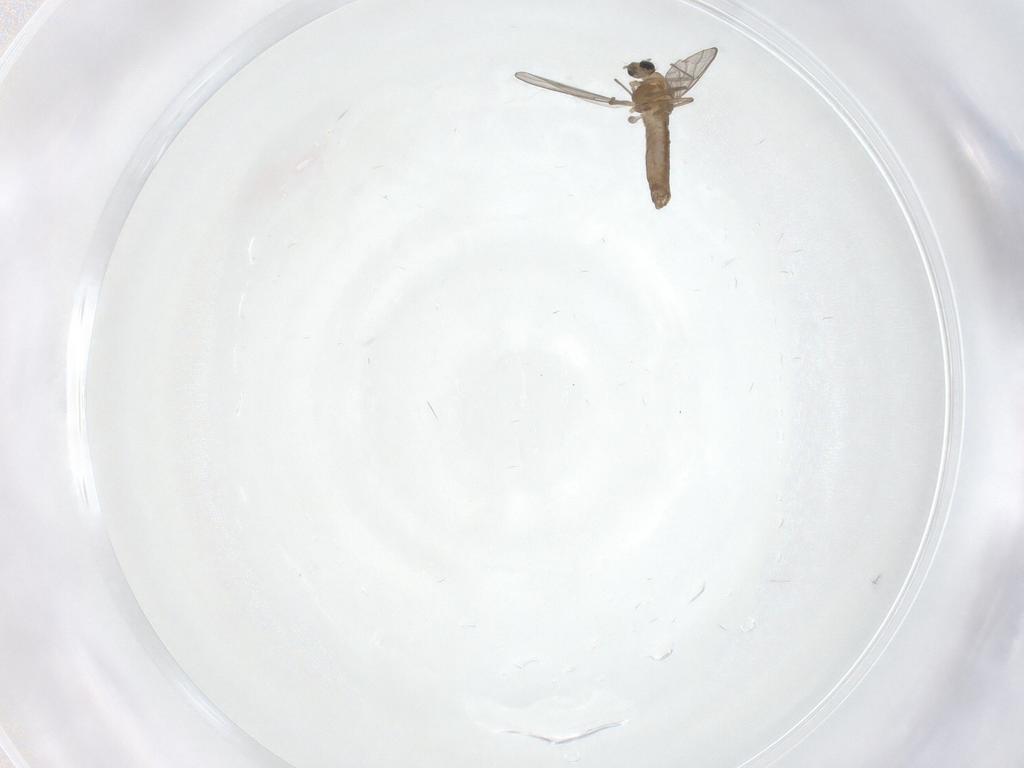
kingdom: Animalia
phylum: Arthropoda
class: Insecta
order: Diptera
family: Chironomidae
